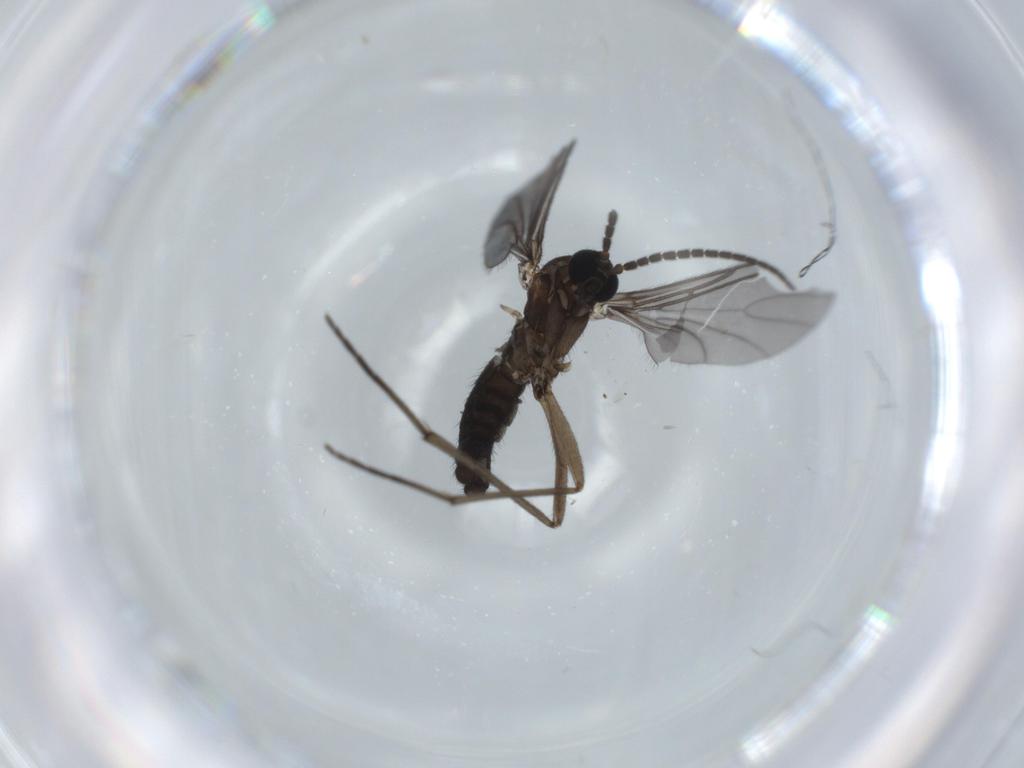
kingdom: Animalia
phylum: Arthropoda
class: Insecta
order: Diptera
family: Sciaridae
